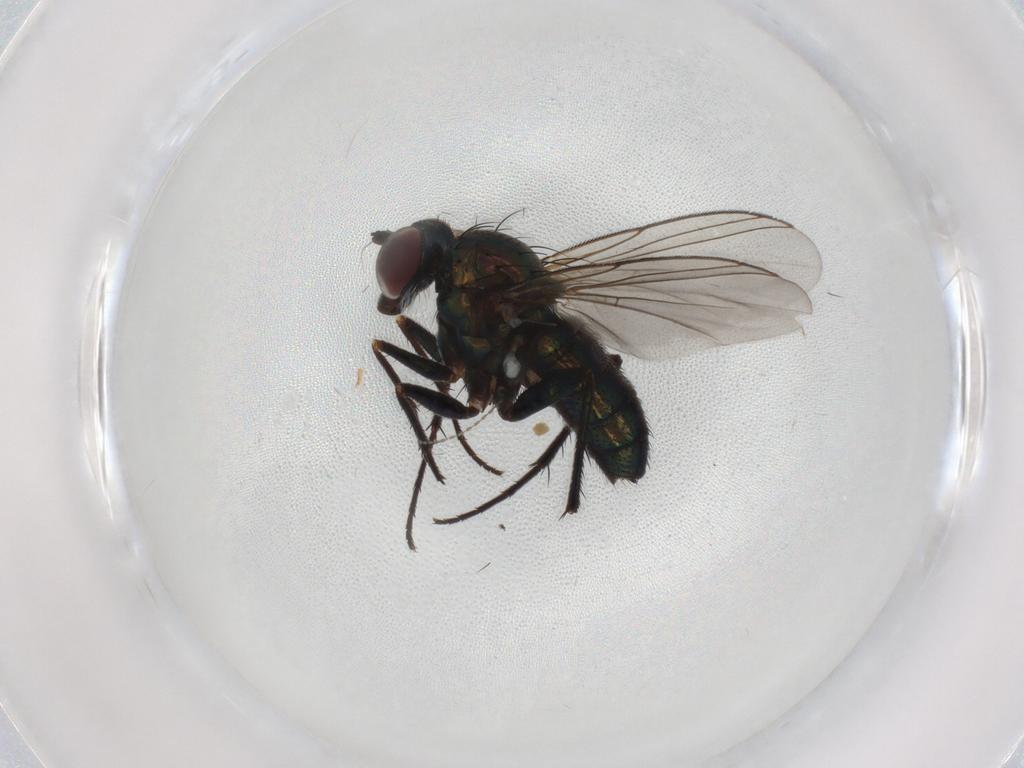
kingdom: Animalia
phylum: Arthropoda
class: Insecta
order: Diptera
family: Dolichopodidae
